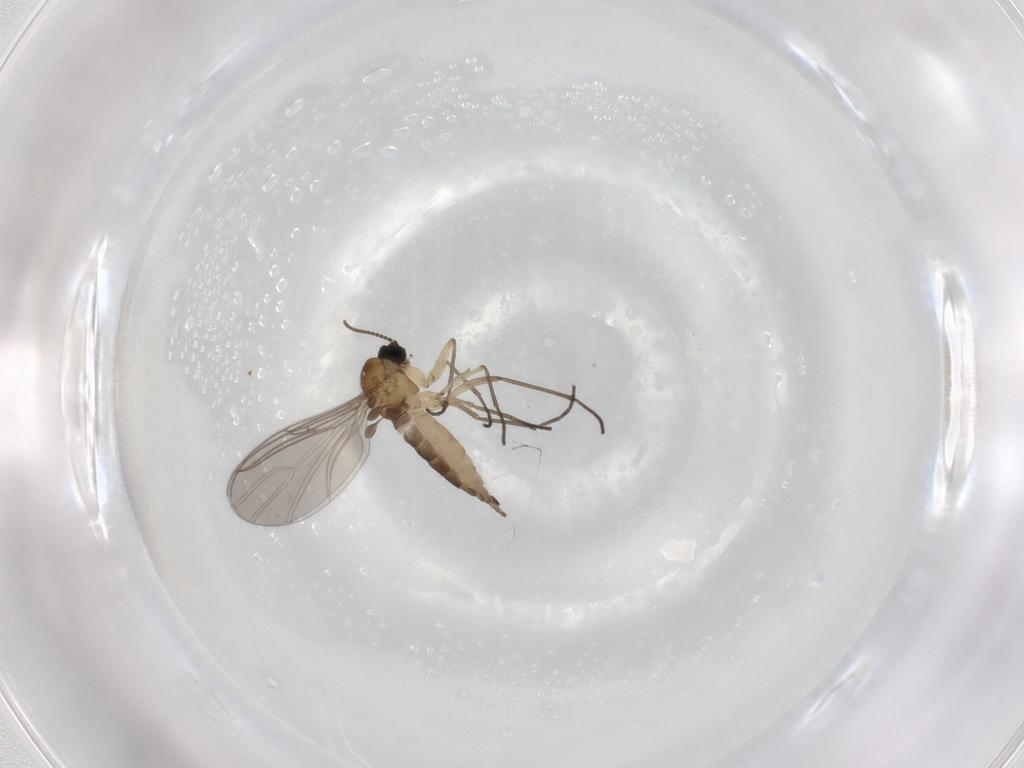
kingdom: Animalia
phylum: Arthropoda
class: Insecta
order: Diptera
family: Sciaridae
